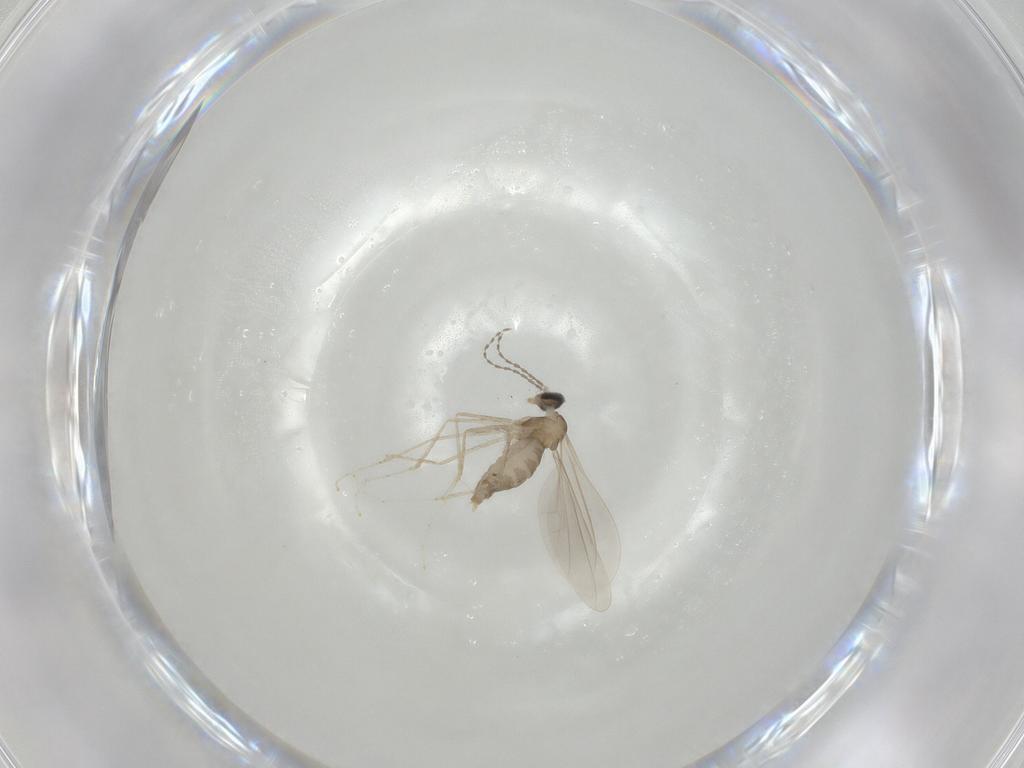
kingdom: Animalia
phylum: Arthropoda
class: Insecta
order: Diptera
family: Cecidomyiidae
